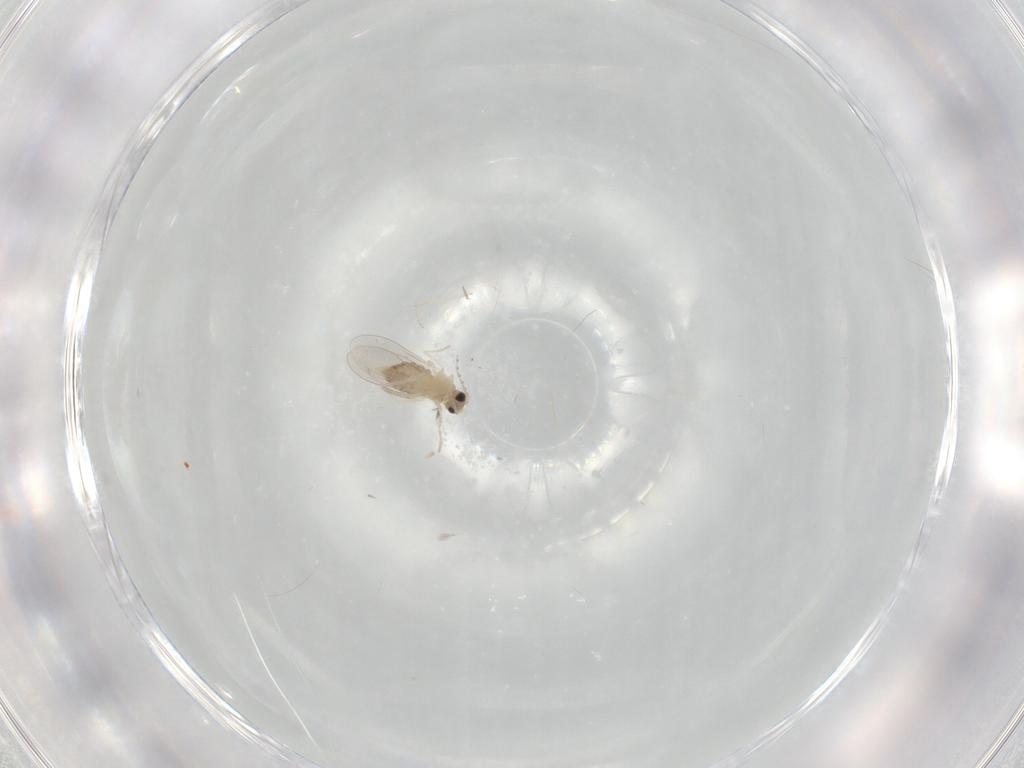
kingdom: Animalia
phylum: Arthropoda
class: Insecta
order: Diptera
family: Cecidomyiidae
